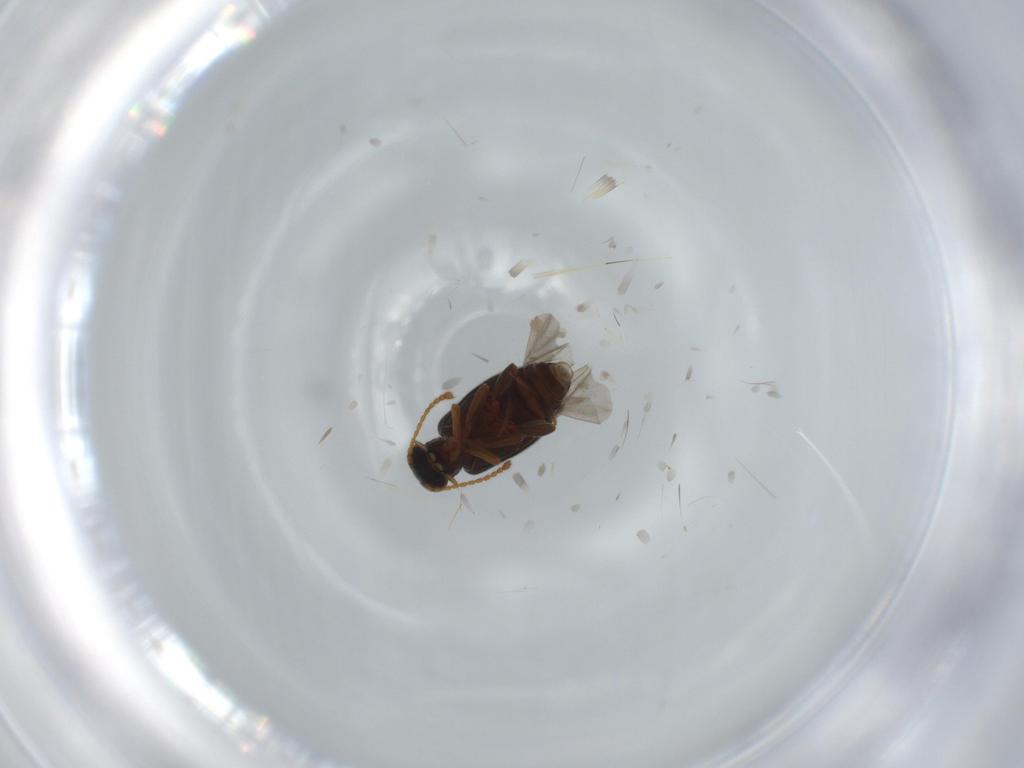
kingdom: Animalia
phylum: Arthropoda
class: Insecta
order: Coleoptera
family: Aderidae
